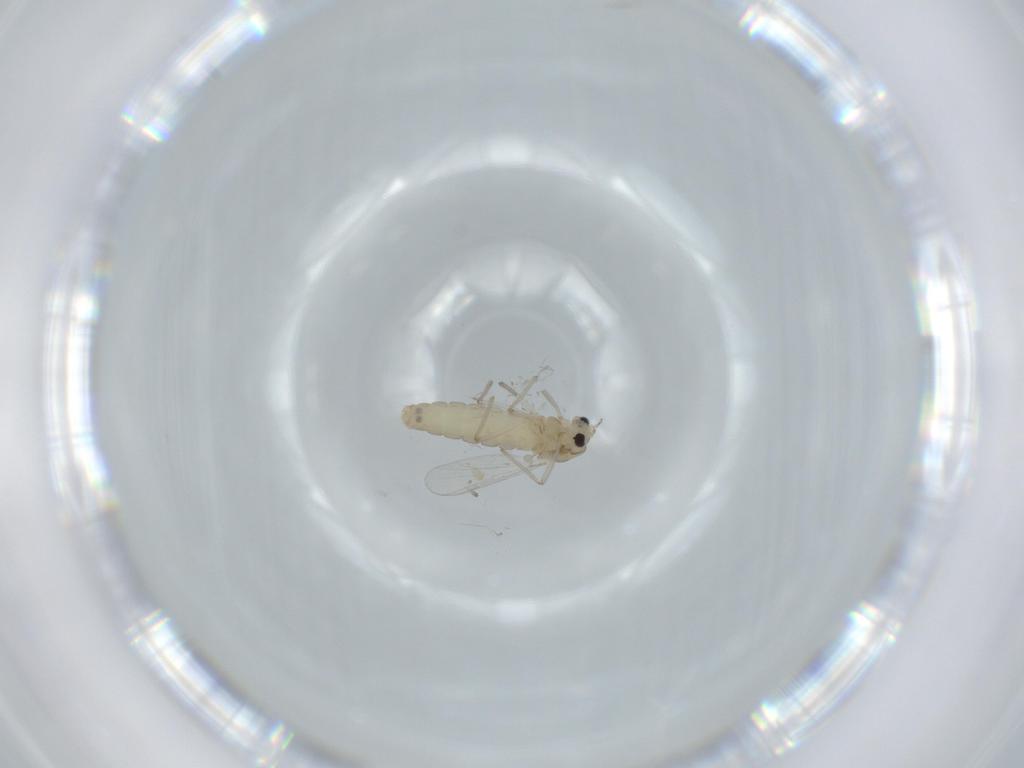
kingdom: Animalia
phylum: Arthropoda
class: Insecta
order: Diptera
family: Chironomidae
